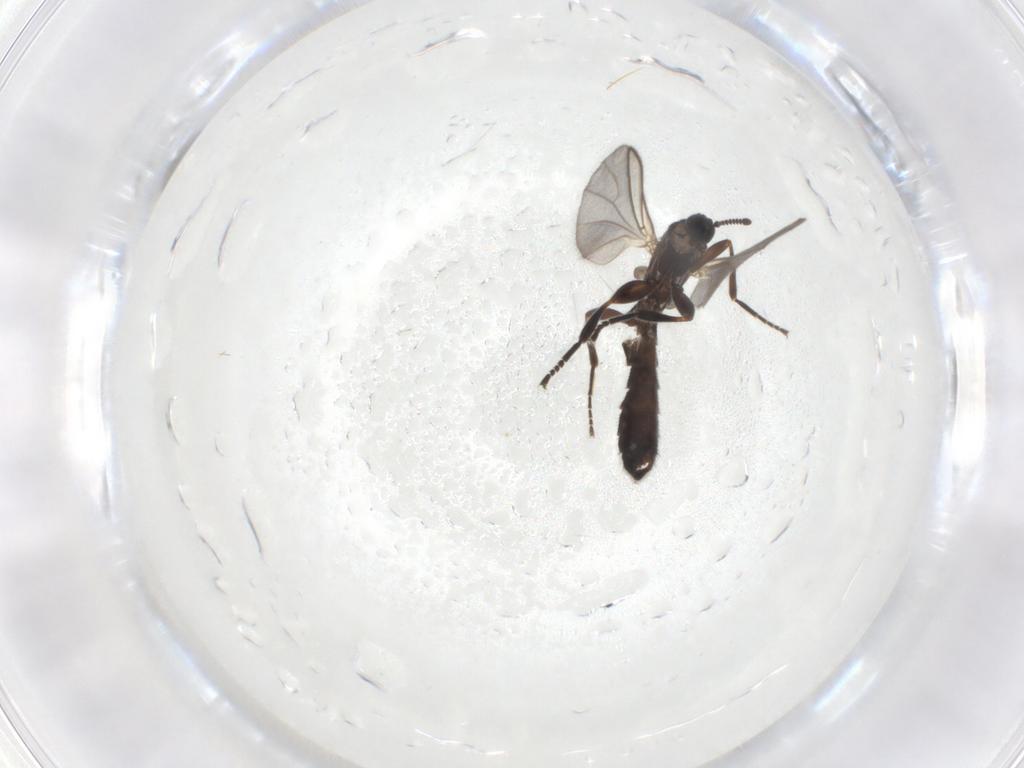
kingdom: Animalia
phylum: Arthropoda
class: Insecta
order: Diptera
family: Scatopsidae
